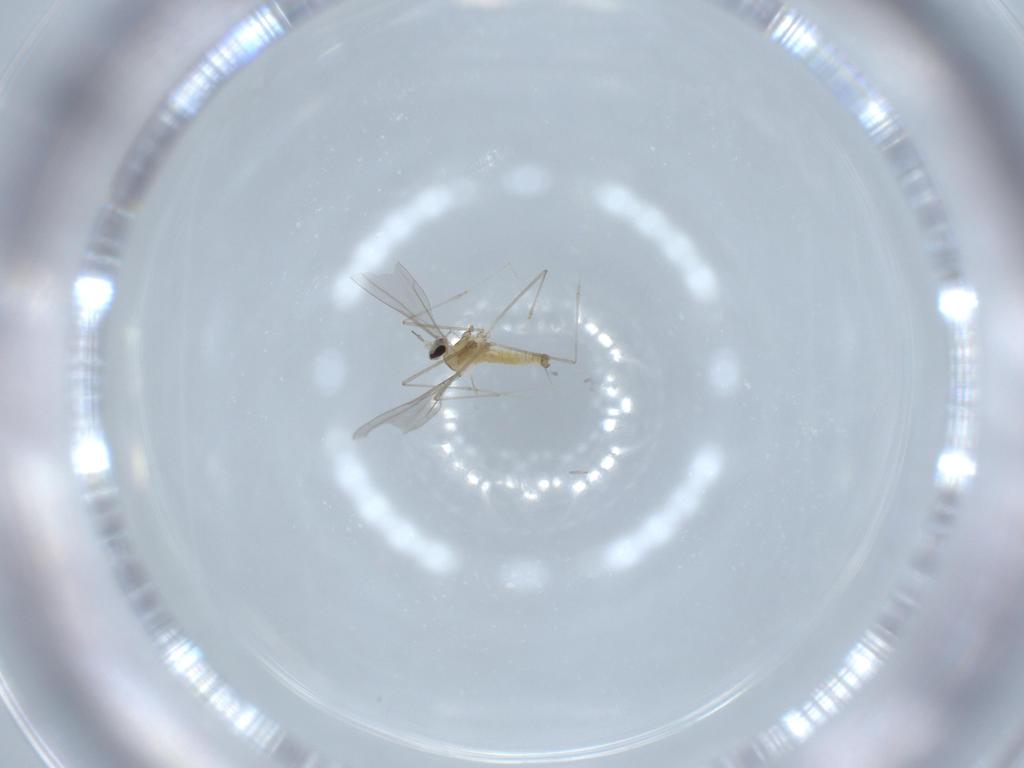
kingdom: Animalia
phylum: Arthropoda
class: Insecta
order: Diptera
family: Cecidomyiidae
